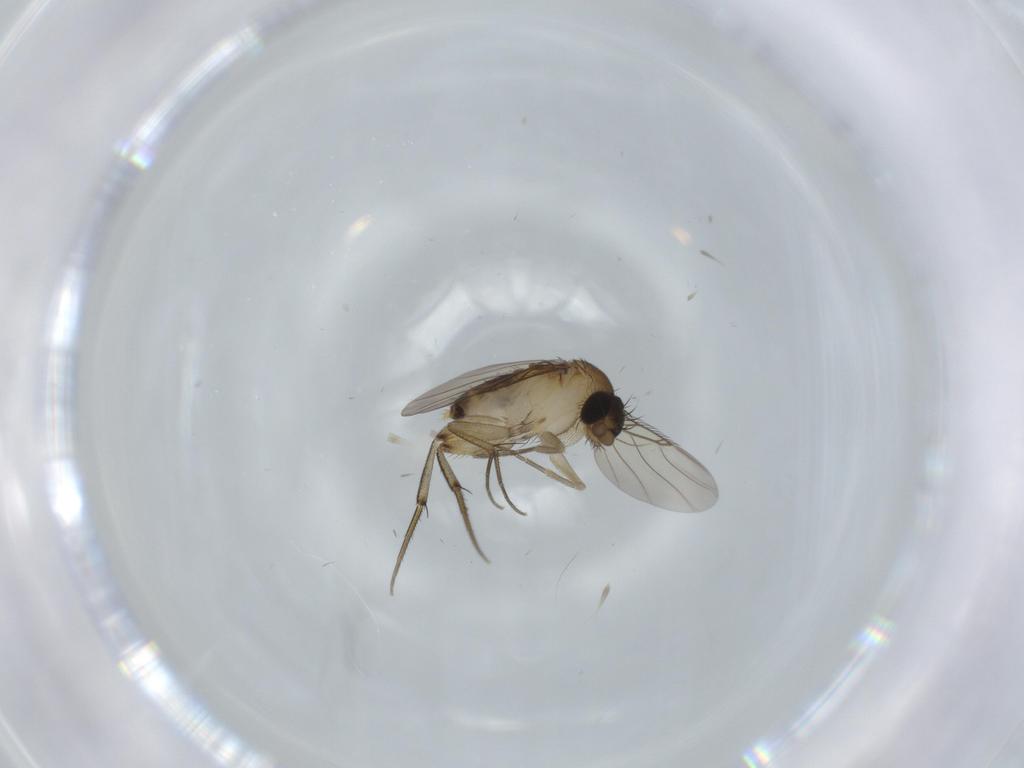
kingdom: Animalia
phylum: Arthropoda
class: Insecta
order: Diptera
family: Phoridae
